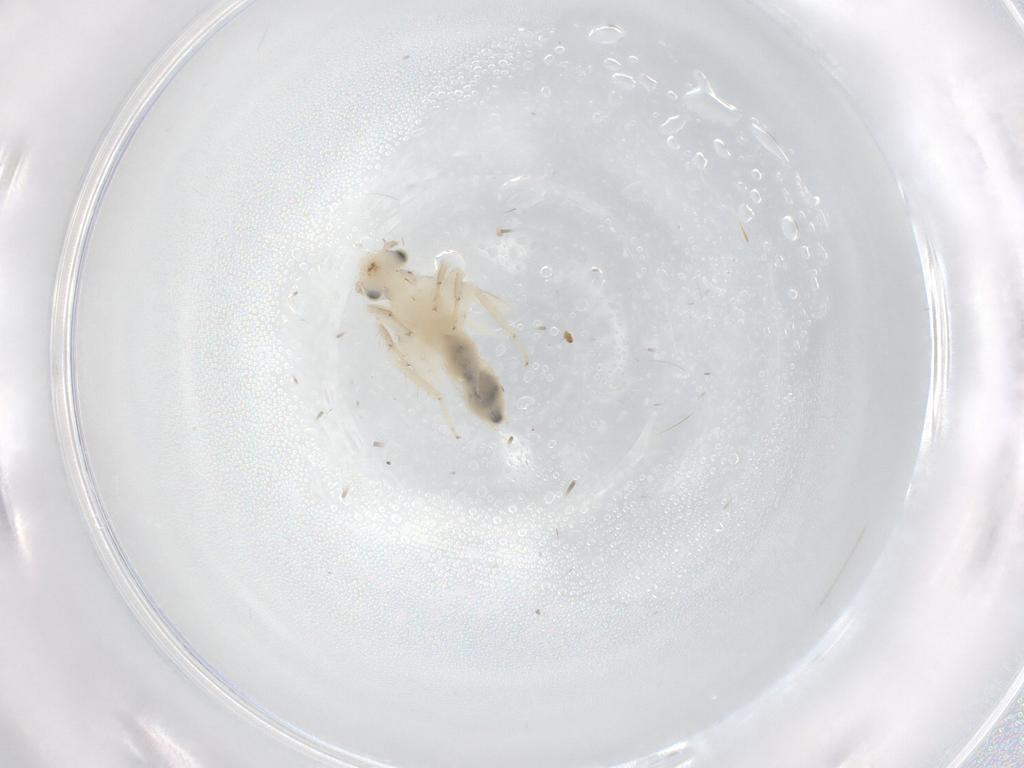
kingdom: Animalia
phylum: Arthropoda
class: Insecta
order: Psocodea
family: Lepidopsocidae
